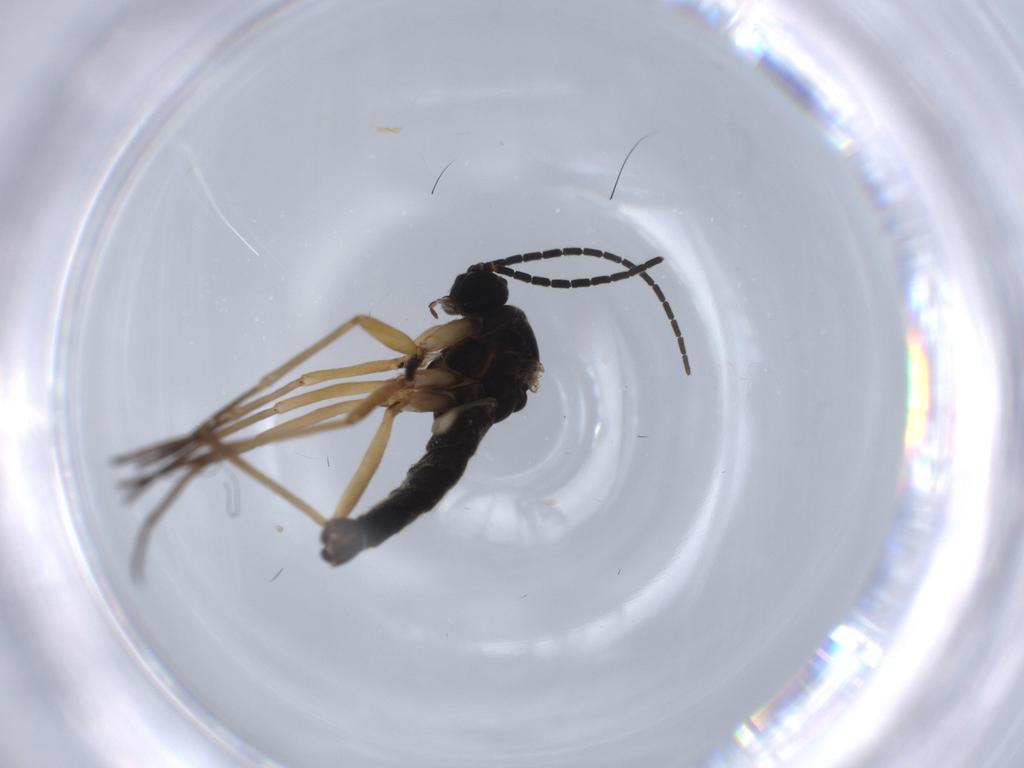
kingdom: Animalia
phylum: Arthropoda
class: Insecta
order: Diptera
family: Sciaridae
